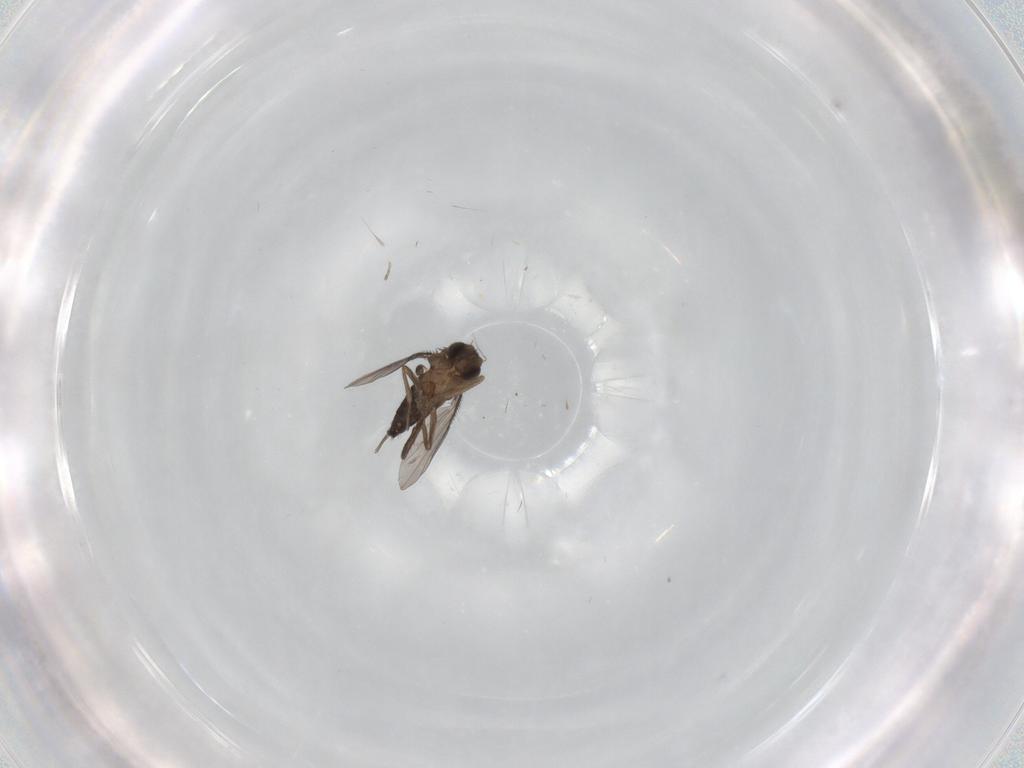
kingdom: Animalia
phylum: Arthropoda
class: Insecta
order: Diptera
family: Phoridae
